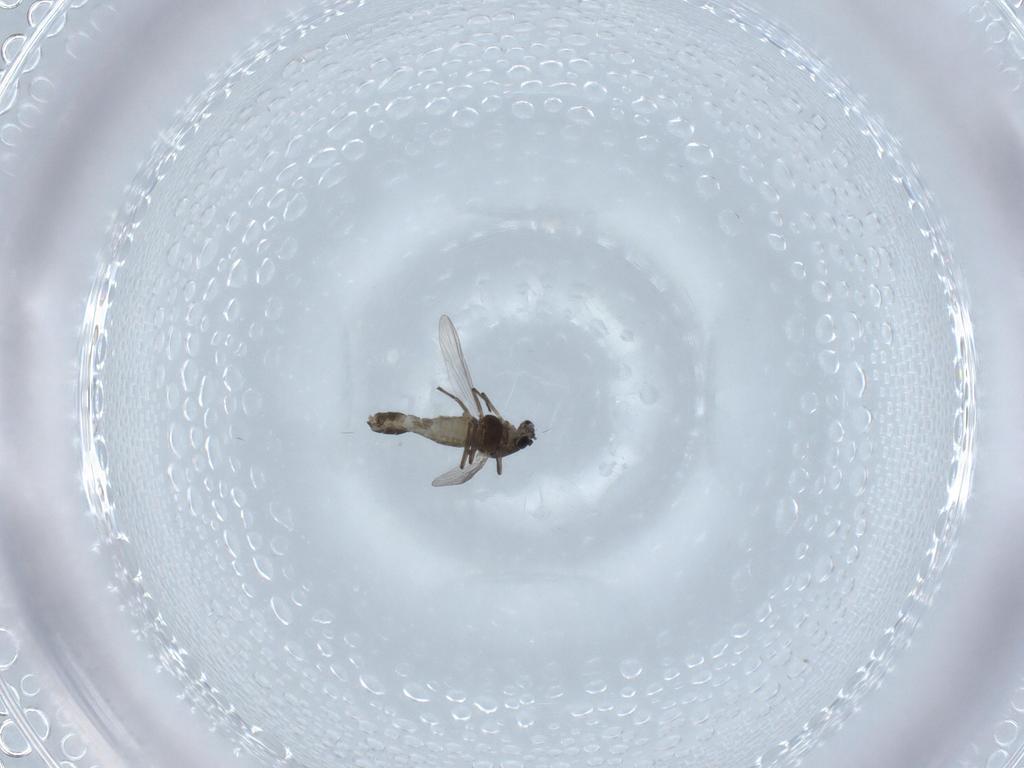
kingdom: Animalia
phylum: Arthropoda
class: Insecta
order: Diptera
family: Chironomidae
